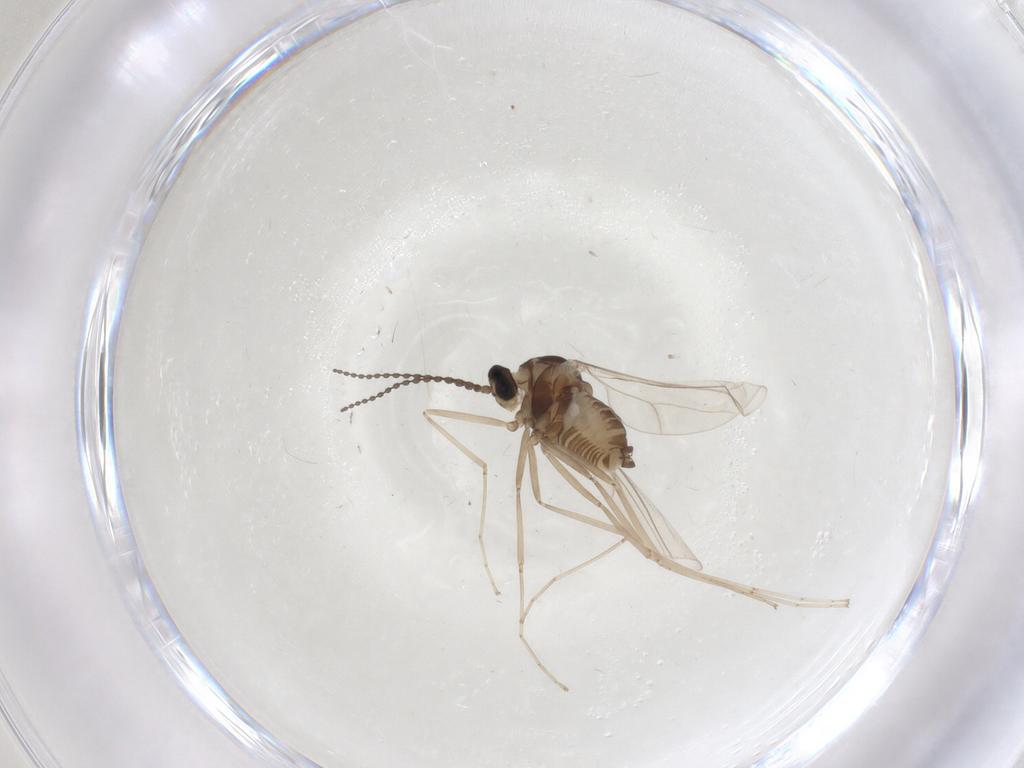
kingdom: Animalia
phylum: Arthropoda
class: Insecta
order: Diptera
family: Cecidomyiidae
